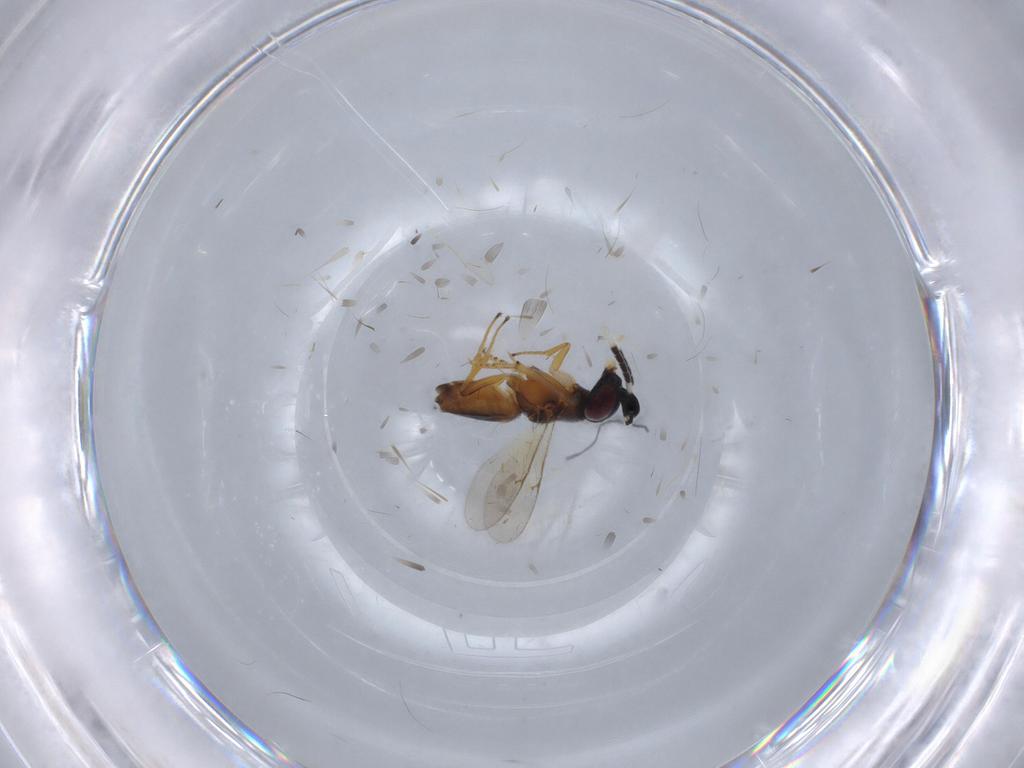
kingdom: Animalia
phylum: Arthropoda
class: Insecta
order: Hymenoptera
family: Encyrtidae
